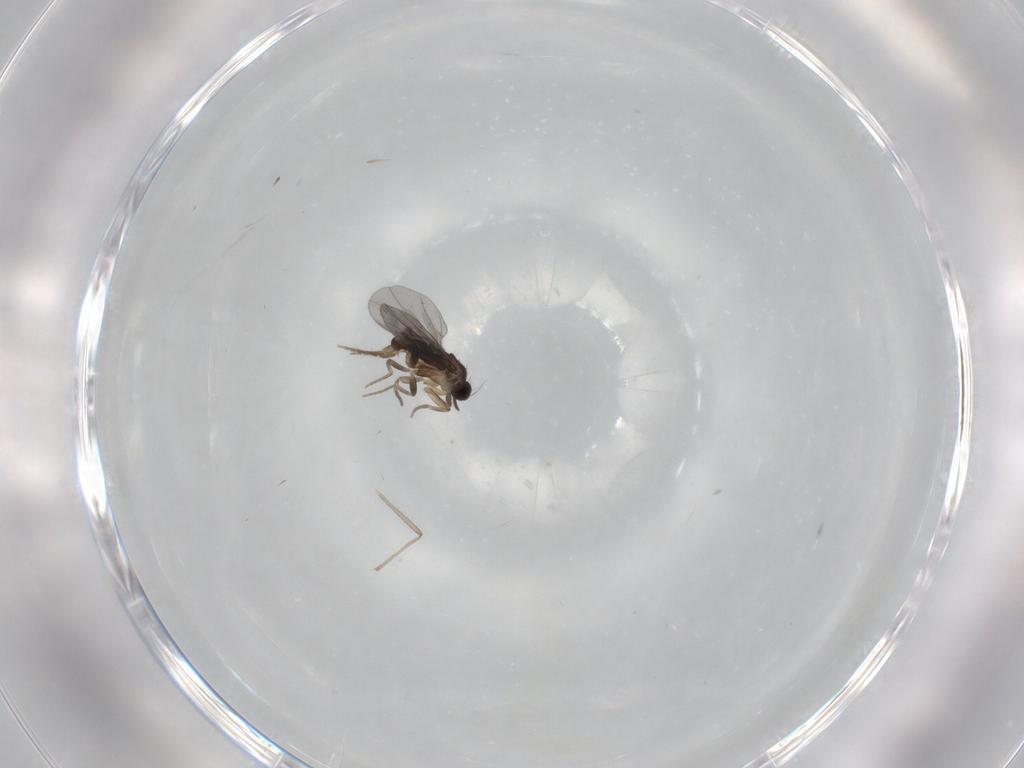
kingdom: Animalia
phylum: Arthropoda
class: Insecta
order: Diptera
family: Phoridae
